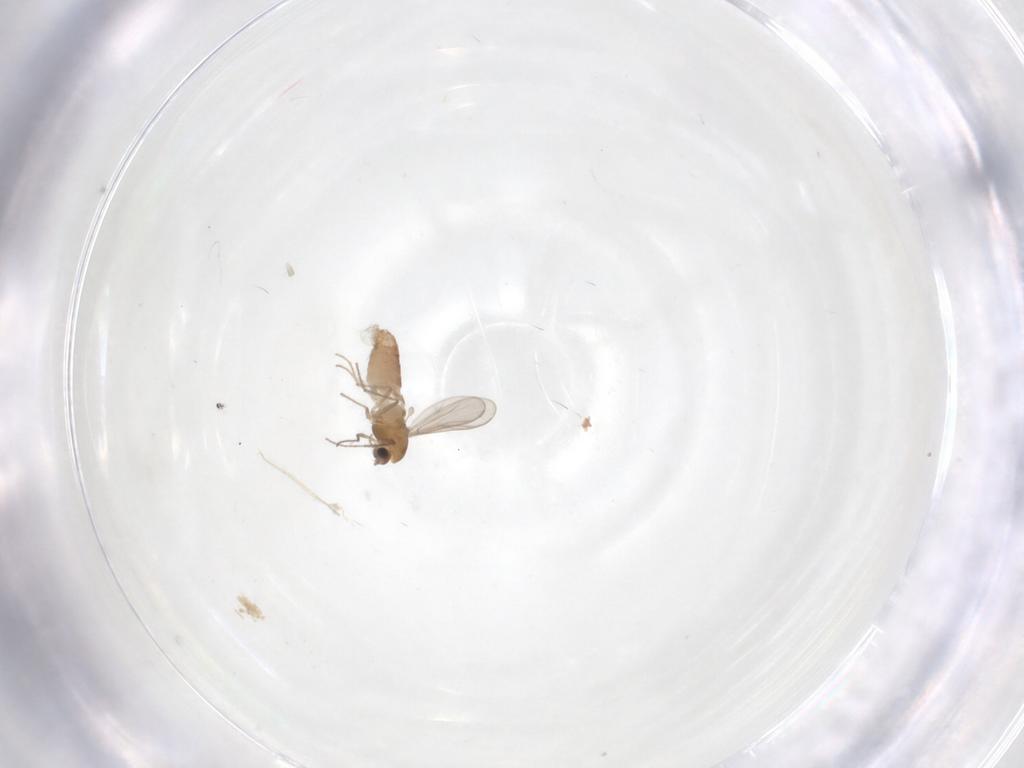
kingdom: Animalia
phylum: Arthropoda
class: Insecta
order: Diptera
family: Chironomidae
